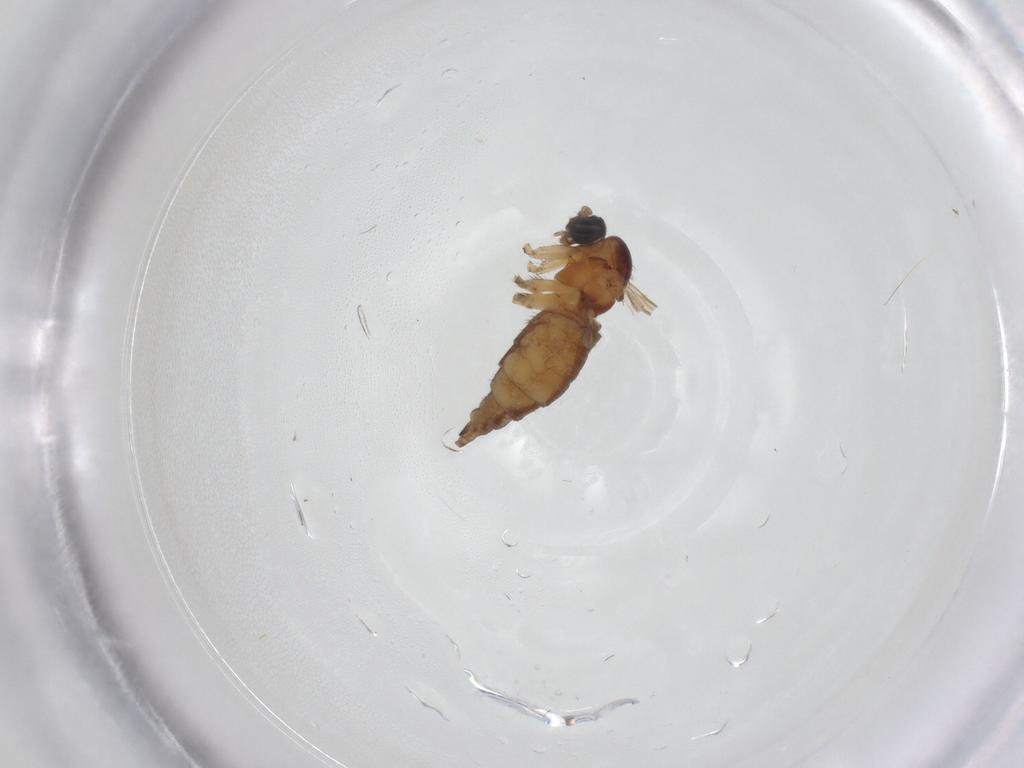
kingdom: Animalia
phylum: Arthropoda
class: Insecta
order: Diptera
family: Sciaridae
